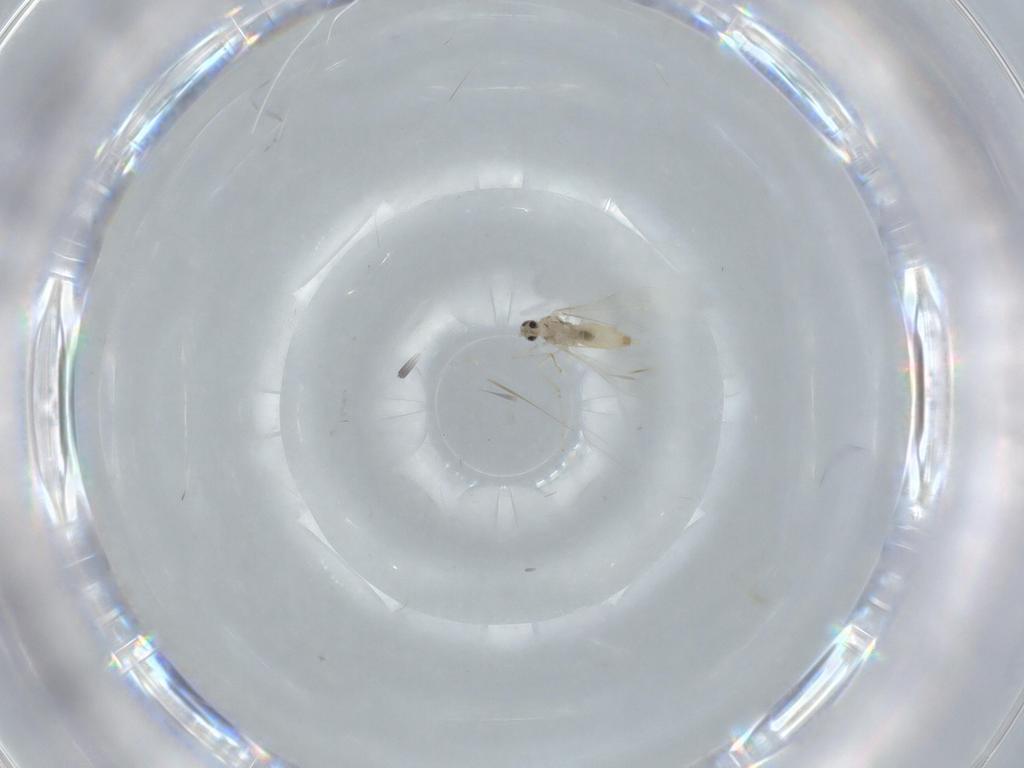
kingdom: Animalia
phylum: Arthropoda
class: Insecta
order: Diptera
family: Cecidomyiidae
